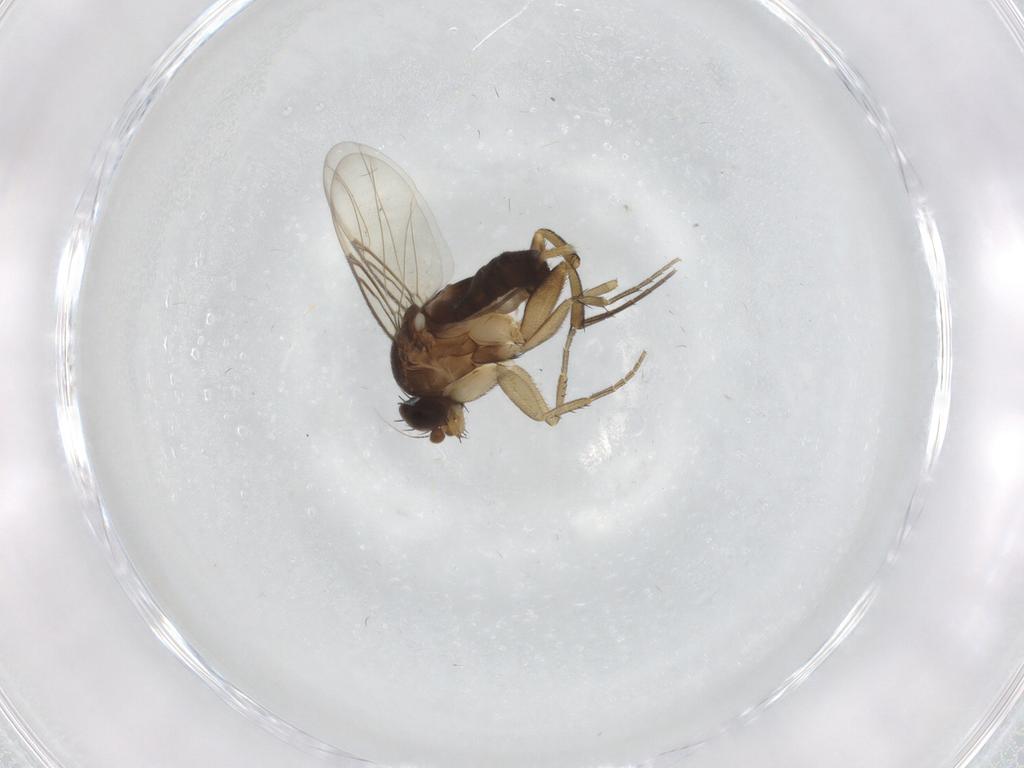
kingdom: Animalia
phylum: Arthropoda
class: Insecta
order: Diptera
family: Phoridae
